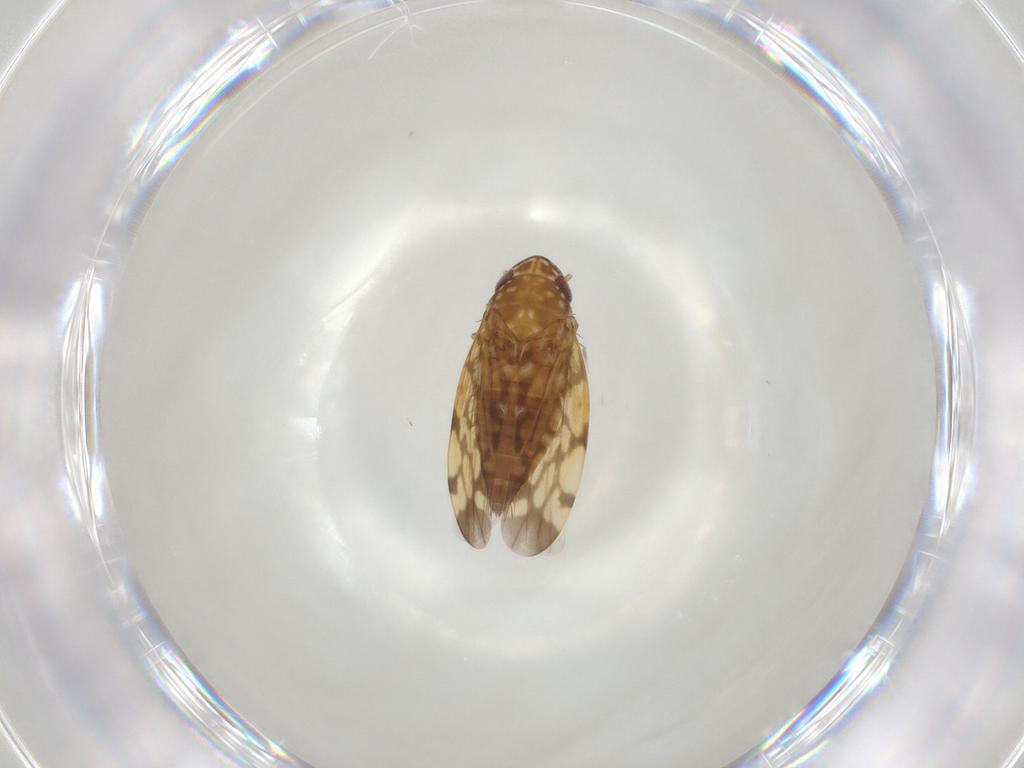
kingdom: Animalia
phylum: Arthropoda
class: Insecta
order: Hemiptera
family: Cicadellidae
